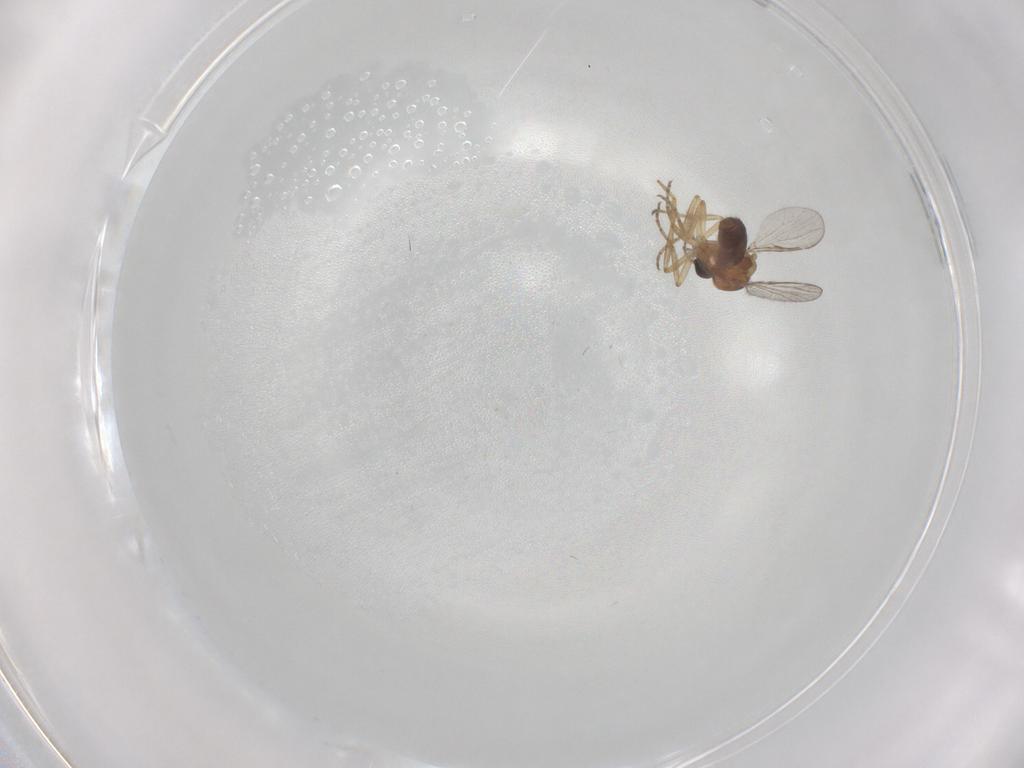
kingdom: Animalia
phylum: Arthropoda
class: Insecta
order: Diptera
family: Ceratopogonidae
